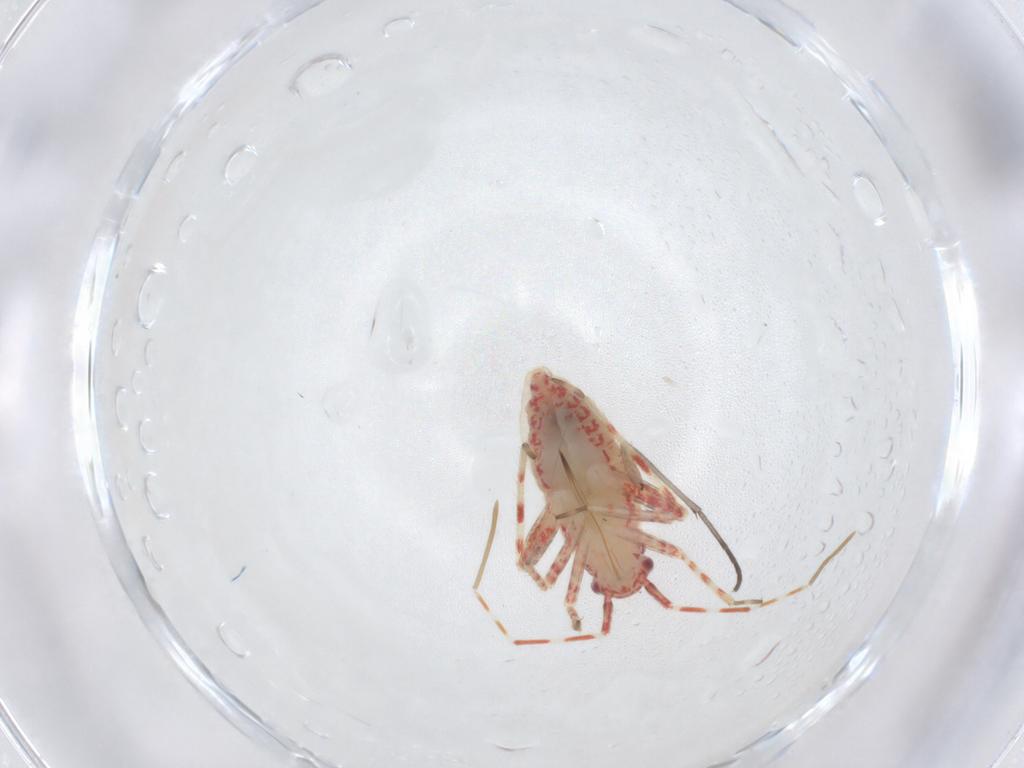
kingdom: Animalia
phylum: Arthropoda
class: Insecta
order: Hemiptera
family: Miridae
